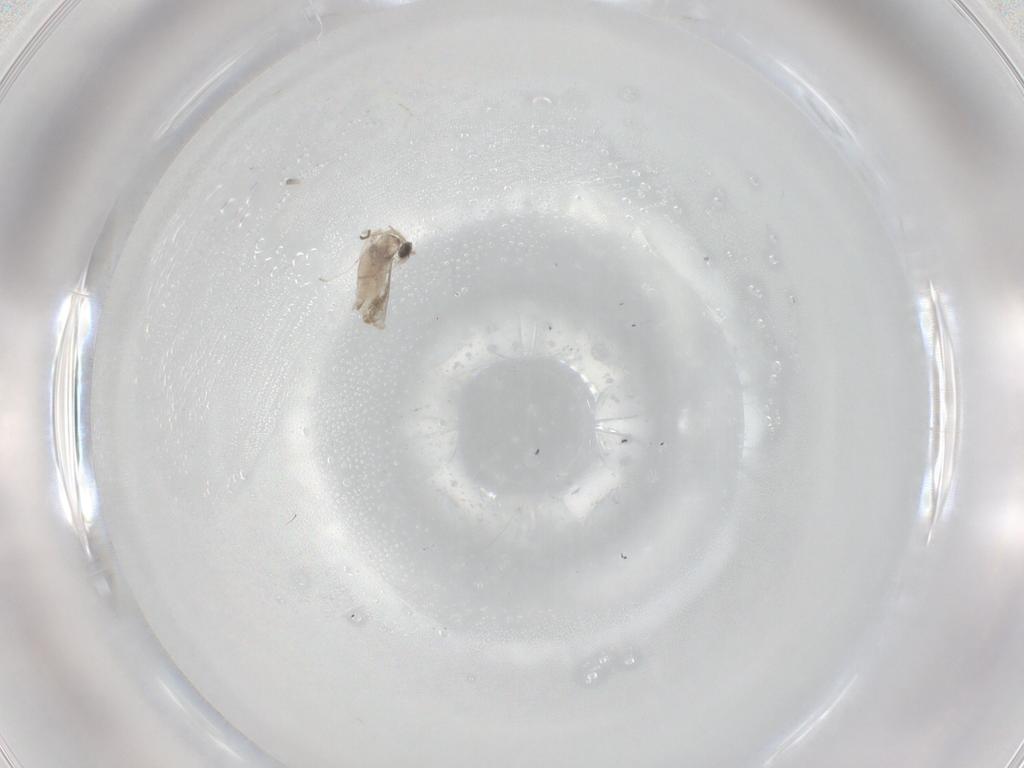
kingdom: Animalia
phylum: Arthropoda
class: Insecta
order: Diptera
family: Cecidomyiidae
